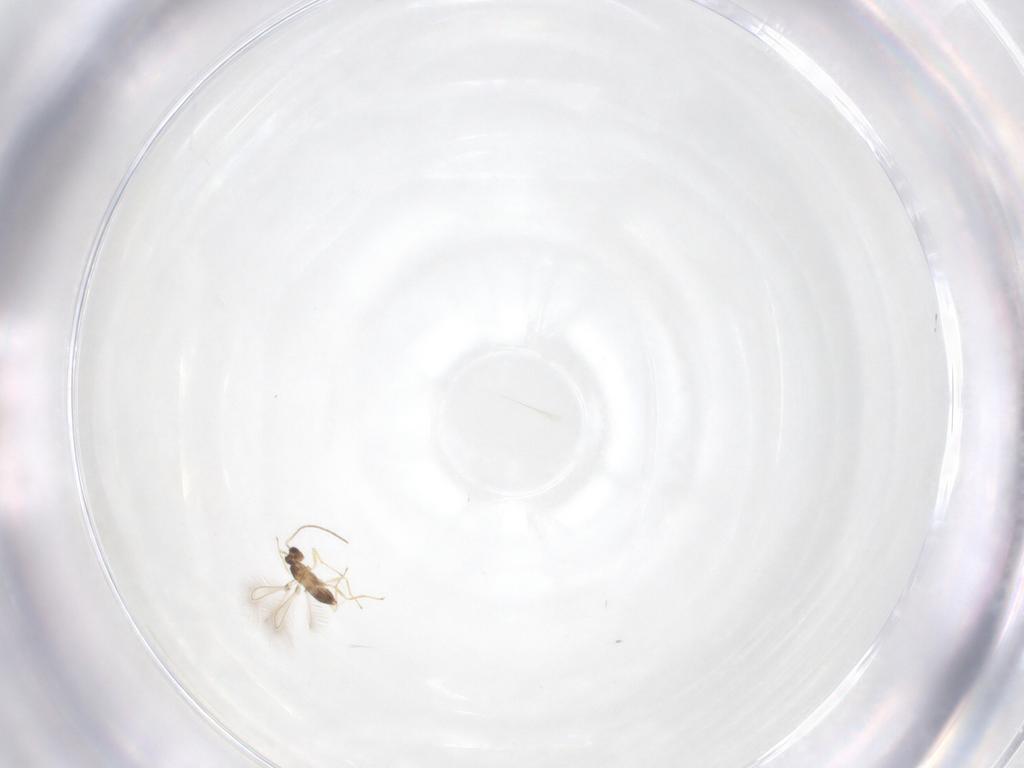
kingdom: Animalia
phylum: Arthropoda
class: Insecta
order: Hymenoptera
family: Mymaridae
